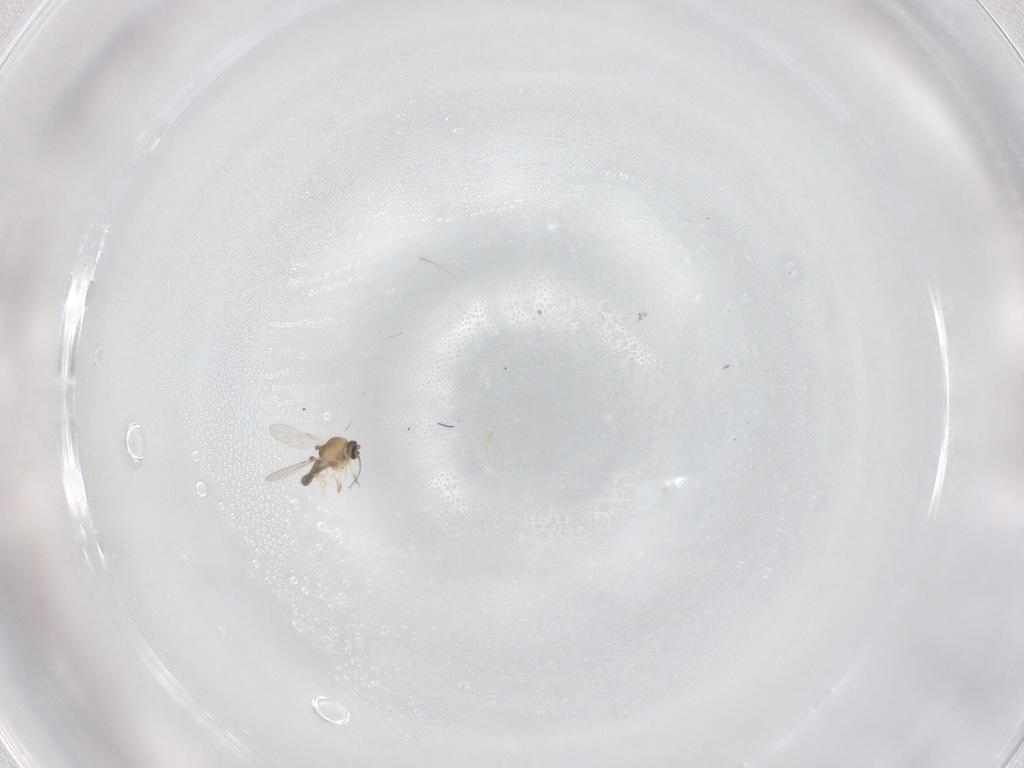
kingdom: Animalia
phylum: Arthropoda
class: Insecta
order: Diptera
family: Ceratopogonidae
